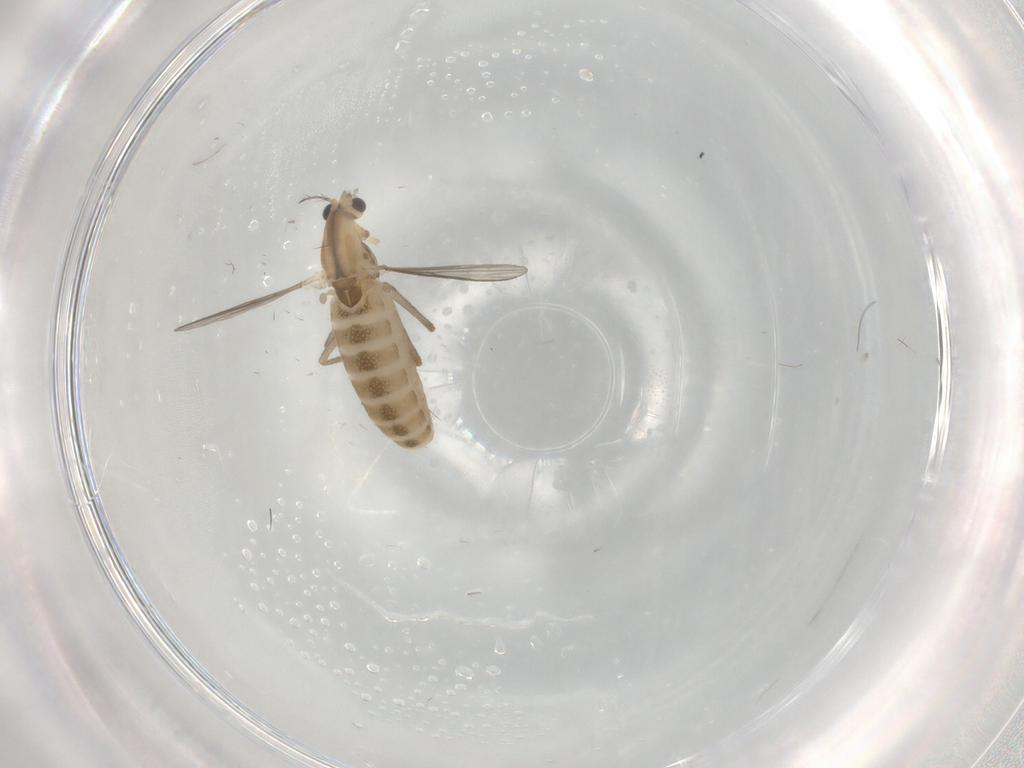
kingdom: Animalia
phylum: Arthropoda
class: Insecta
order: Diptera
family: Chironomidae
